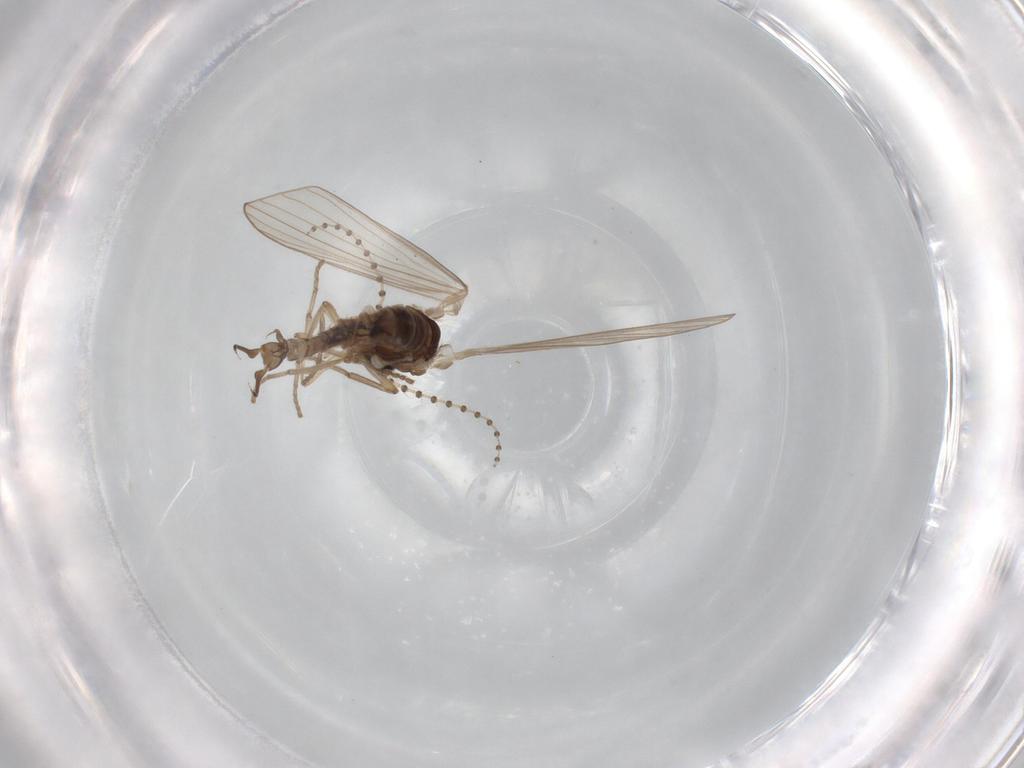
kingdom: Animalia
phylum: Arthropoda
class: Insecta
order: Diptera
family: Psychodidae
